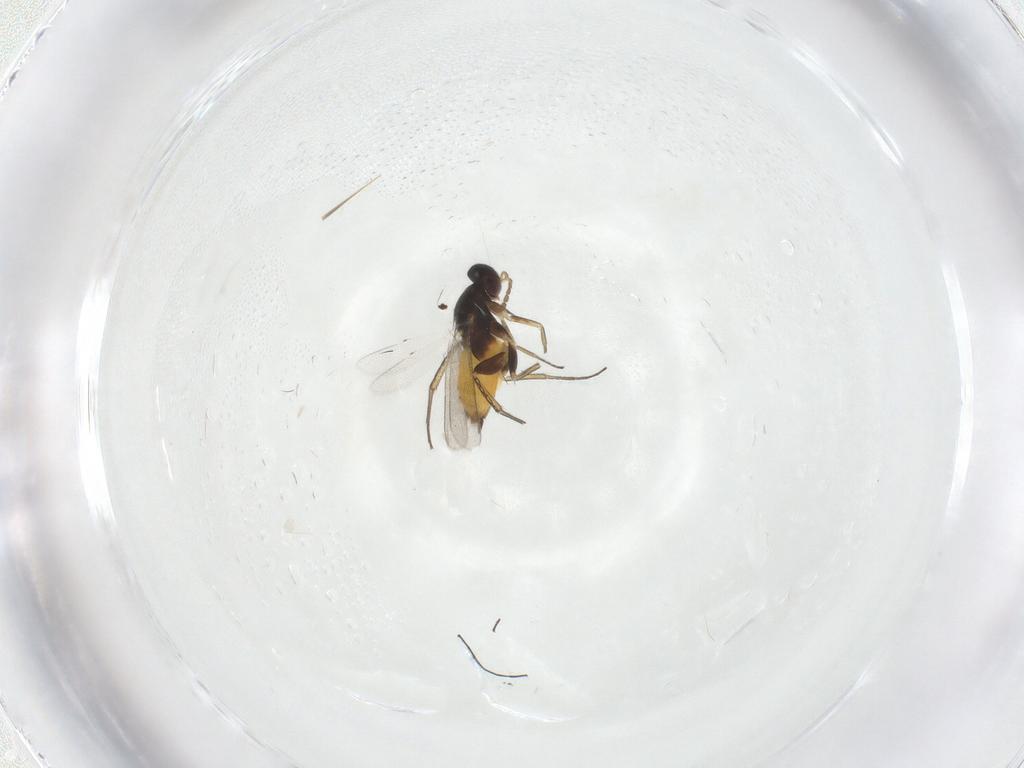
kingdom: Animalia
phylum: Arthropoda
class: Insecta
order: Hymenoptera
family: Eulophidae
